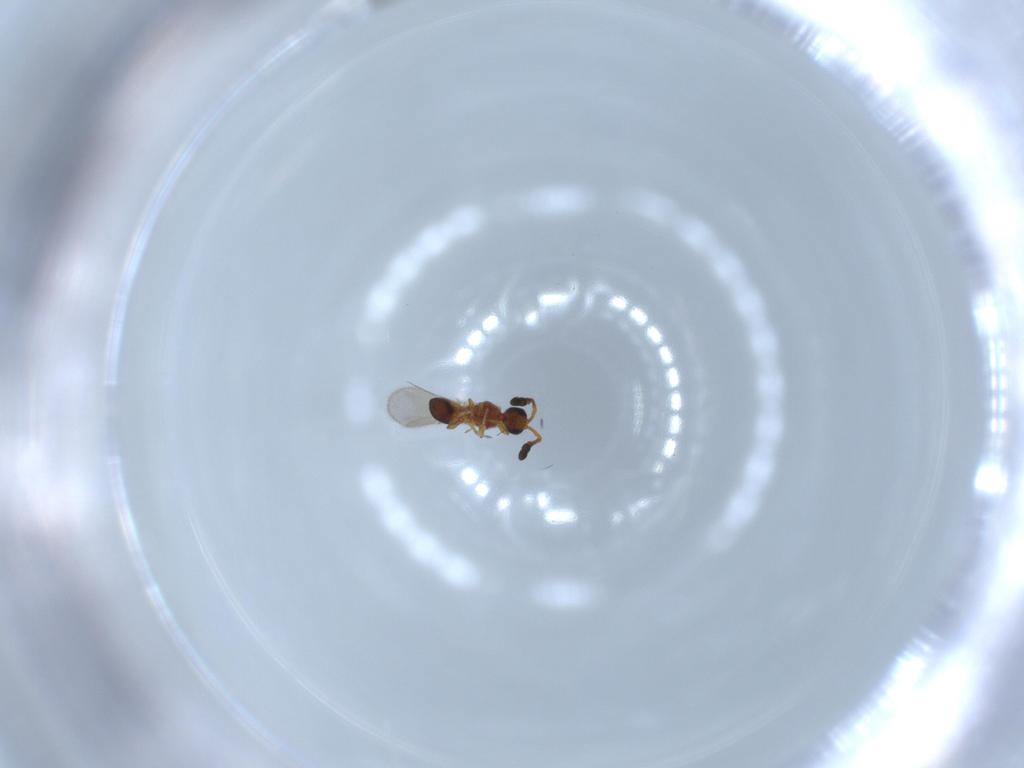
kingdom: Animalia
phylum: Arthropoda
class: Insecta
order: Hymenoptera
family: Diapriidae
